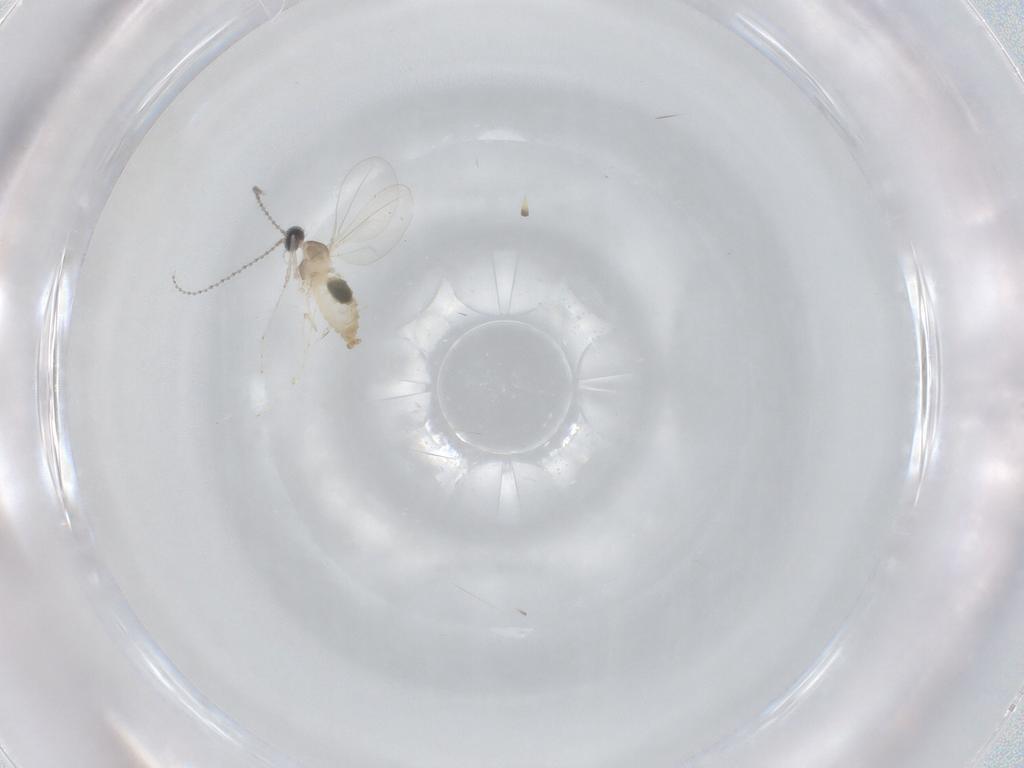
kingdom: Animalia
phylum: Arthropoda
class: Insecta
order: Diptera
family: Cecidomyiidae
